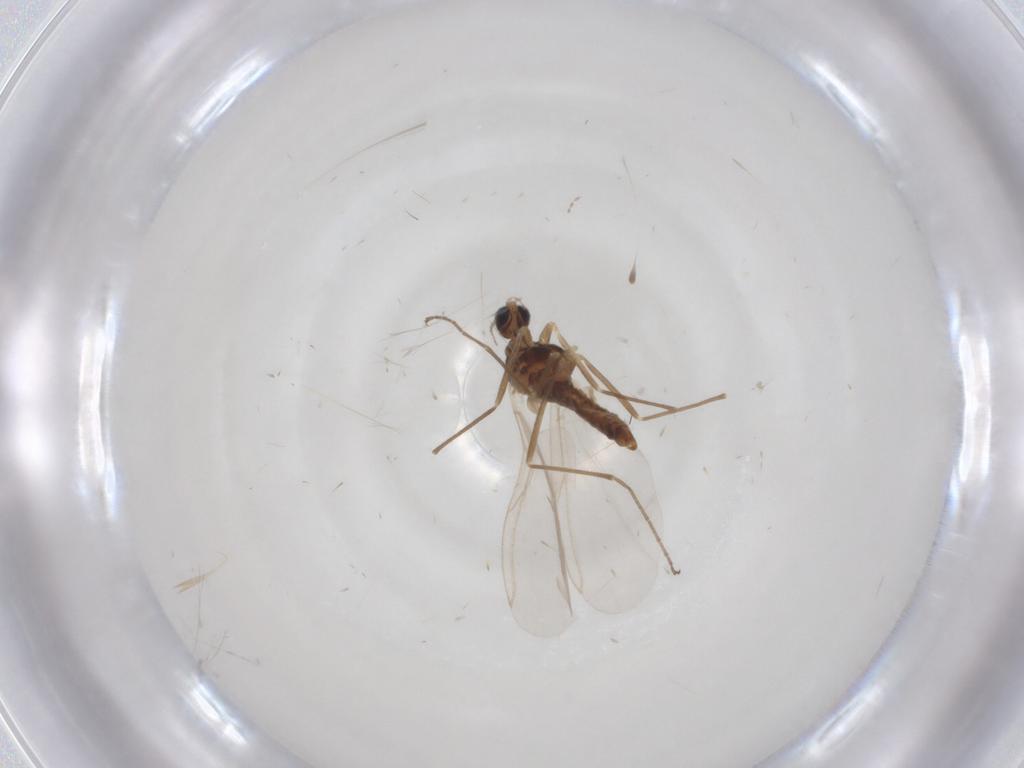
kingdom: Animalia
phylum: Arthropoda
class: Insecta
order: Diptera
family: Cecidomyiidae
